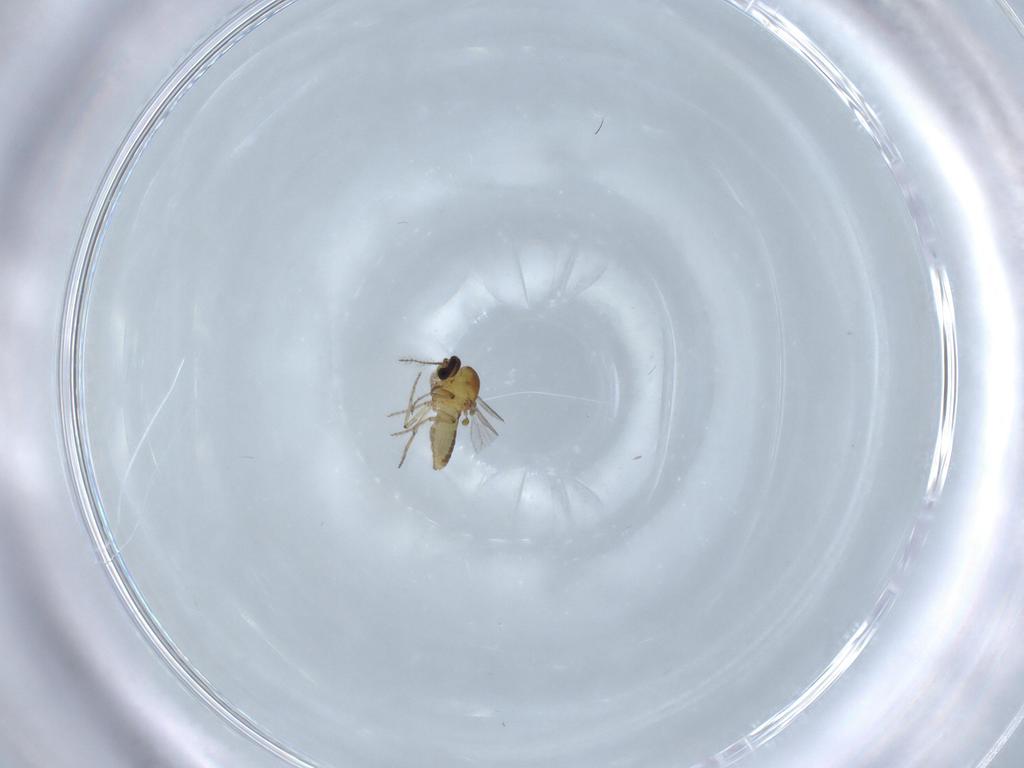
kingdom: Animalia
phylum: Arthropoda
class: Insecta
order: Diptera
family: Ceratopogonidae
